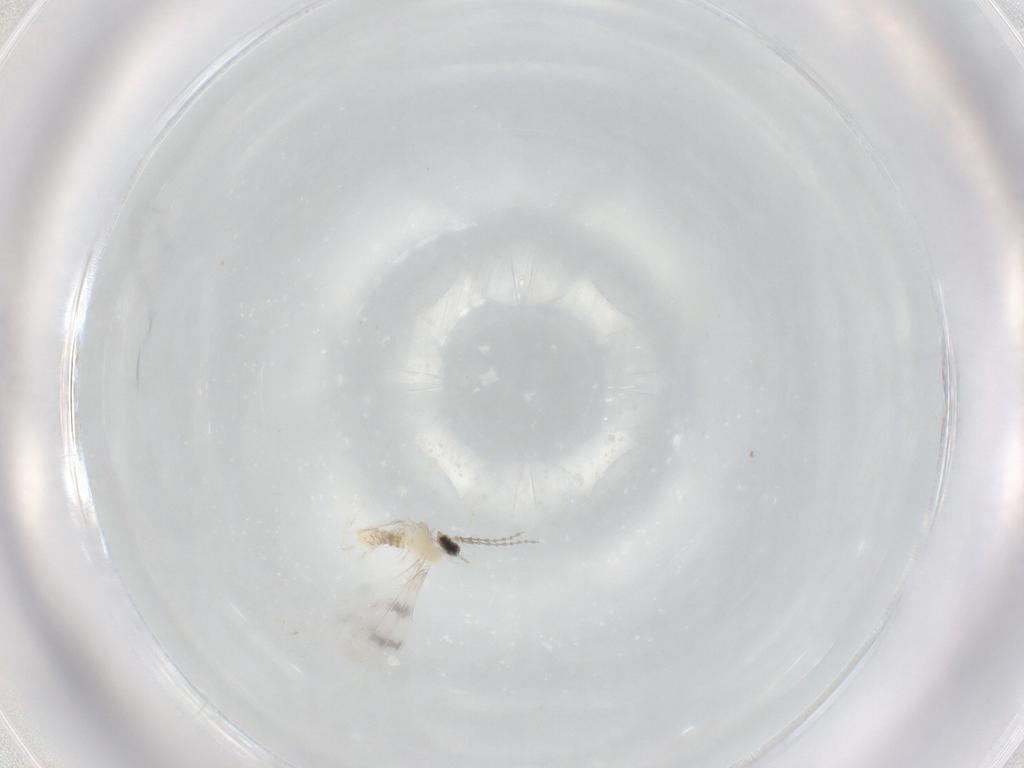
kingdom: Animalia
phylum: Arthropoda
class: Insecta
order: Diptera
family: Cecidomyiidae
